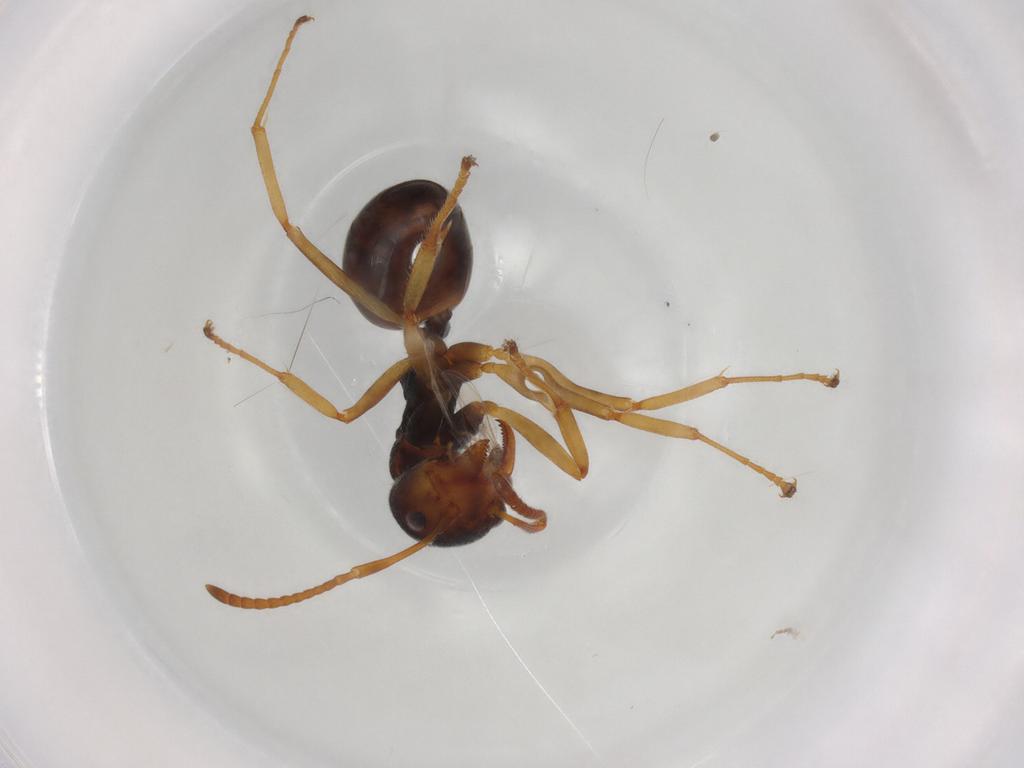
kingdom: Animalia
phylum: Arthropoda
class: Insecta
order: Hymenoptera
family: Formicidae
